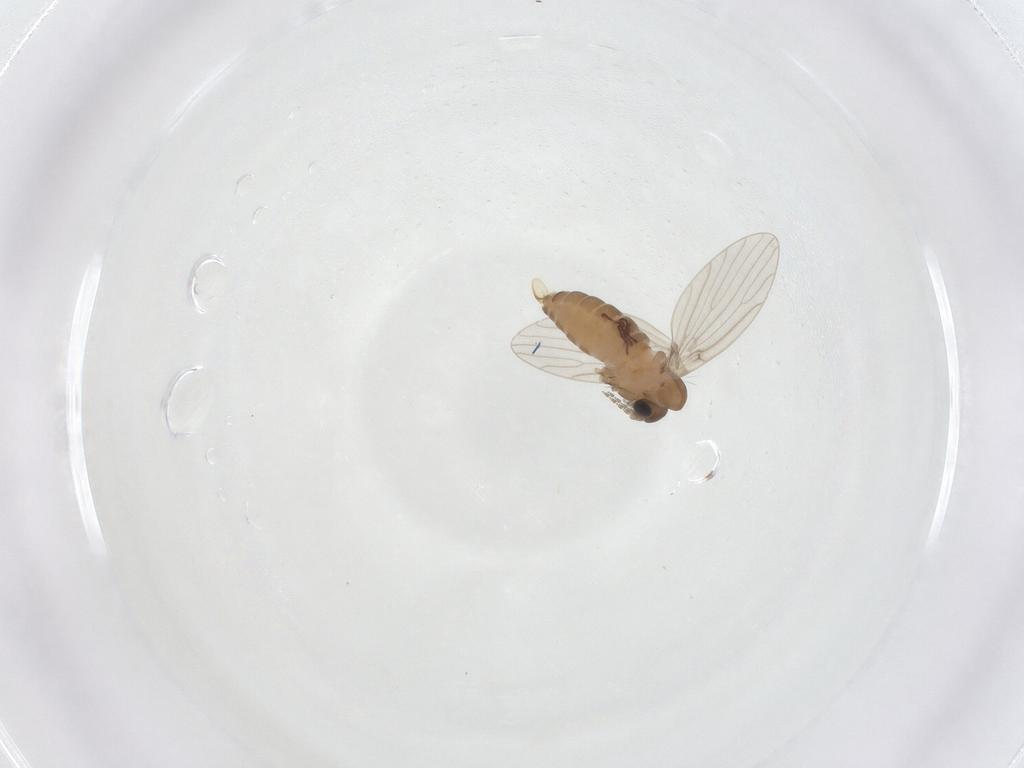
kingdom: Animalia
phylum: Arthropoda
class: Insecta
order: Diptera
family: Psychodidae
